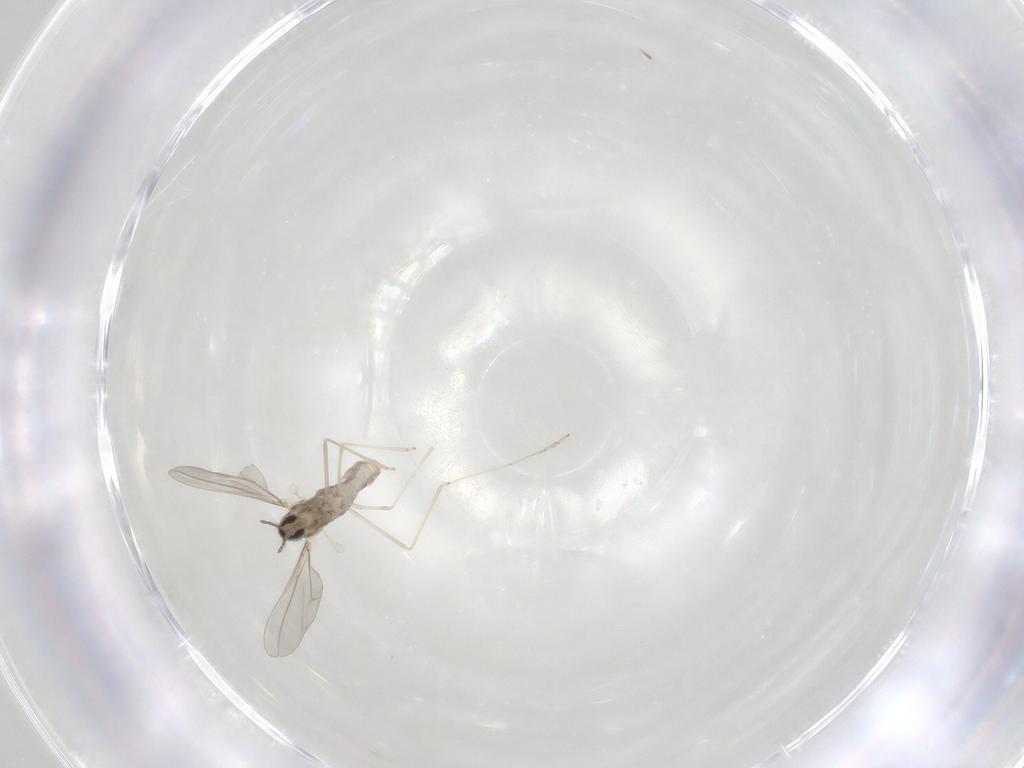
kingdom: Animalia
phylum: Arthropoda
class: Insecta
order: Diptera
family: Cecidomyiidae
